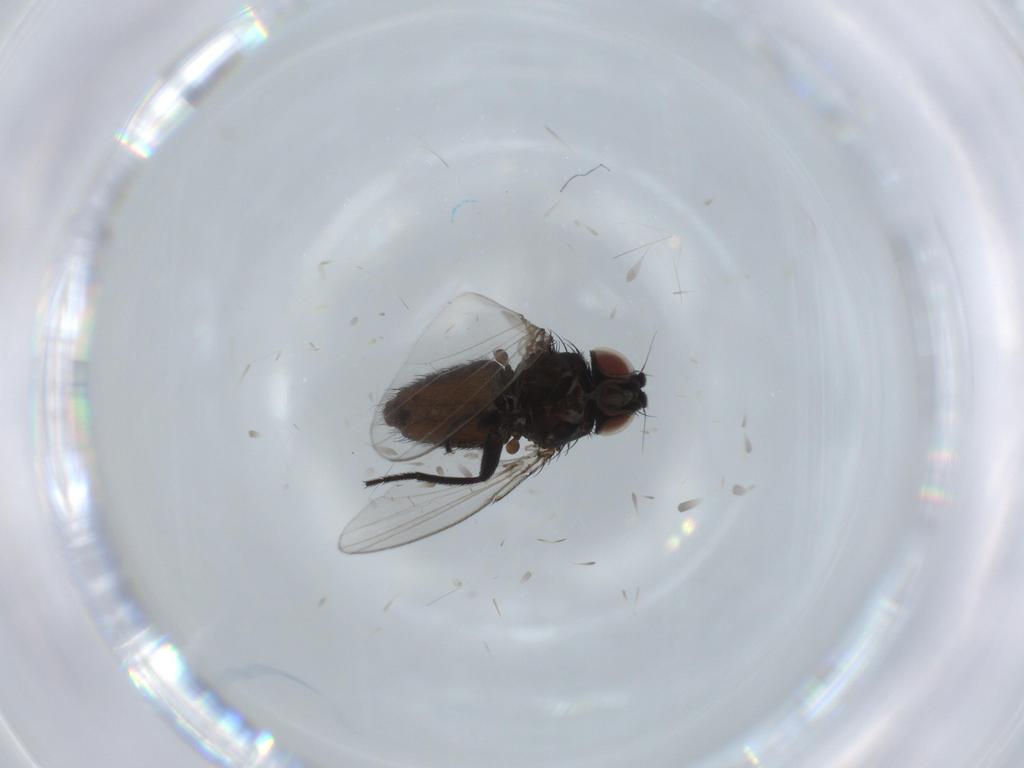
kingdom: Animalia
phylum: Arthropoda
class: Insecta
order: Diptera
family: Milichiidae
